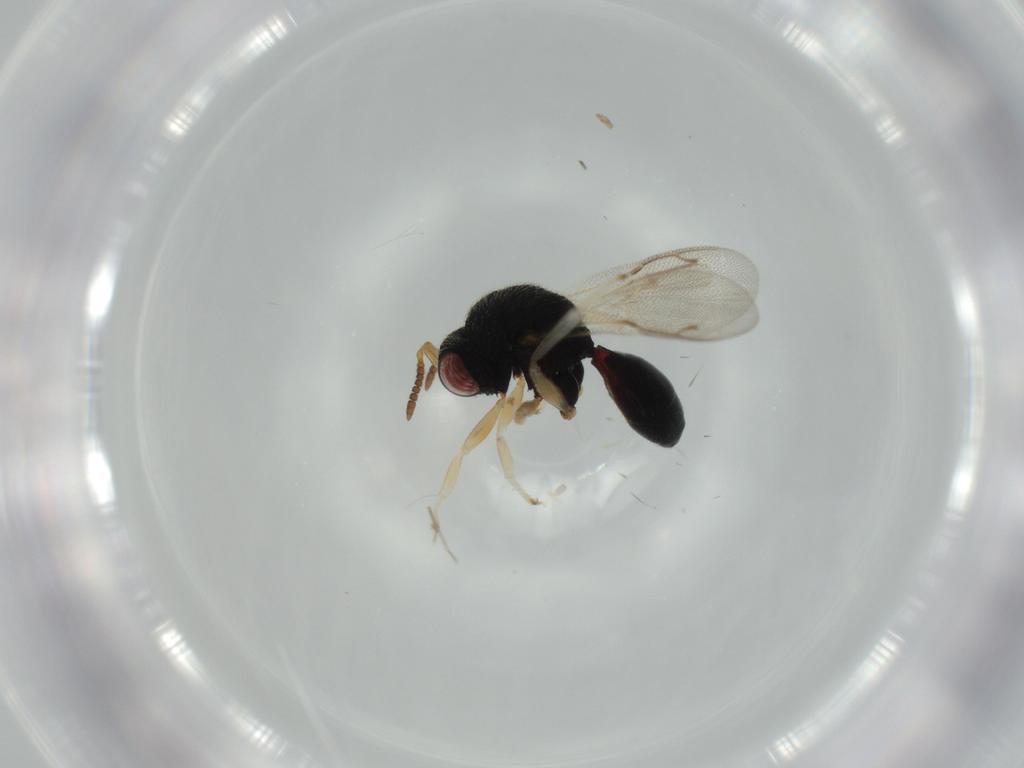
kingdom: Animalia
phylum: Arthropoda
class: Insecta
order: Hymenoptera
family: Eurytomidae
